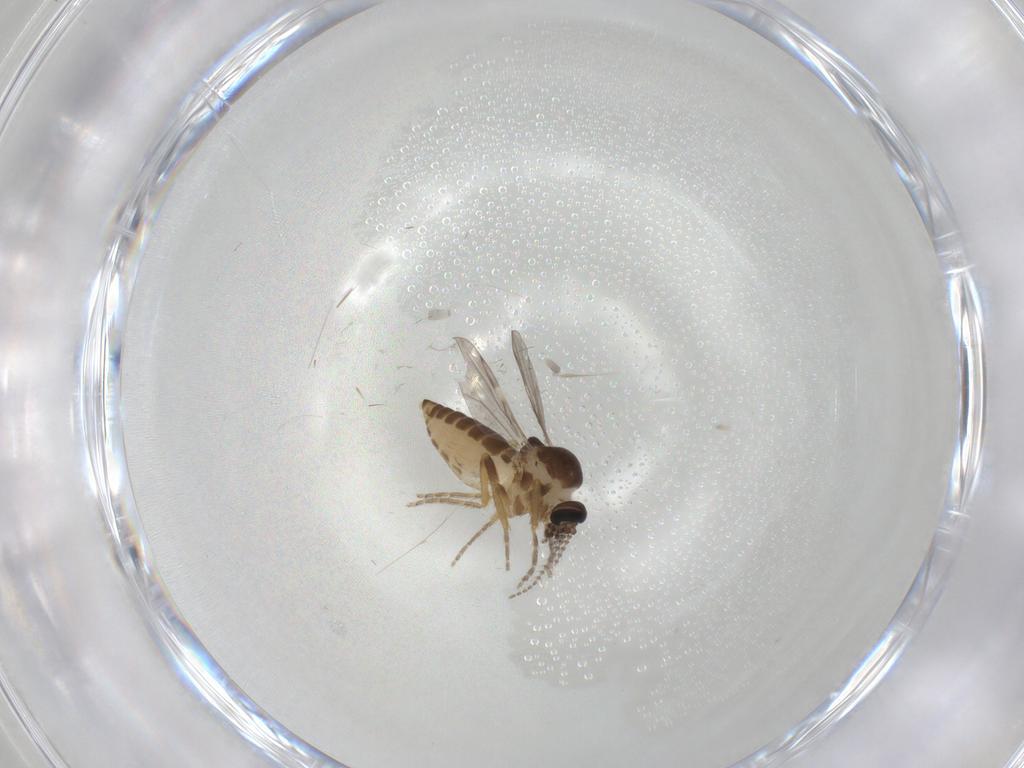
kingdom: Animalia
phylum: Arthropoda
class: Insecta
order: Diptera
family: Ceratopogonidae
